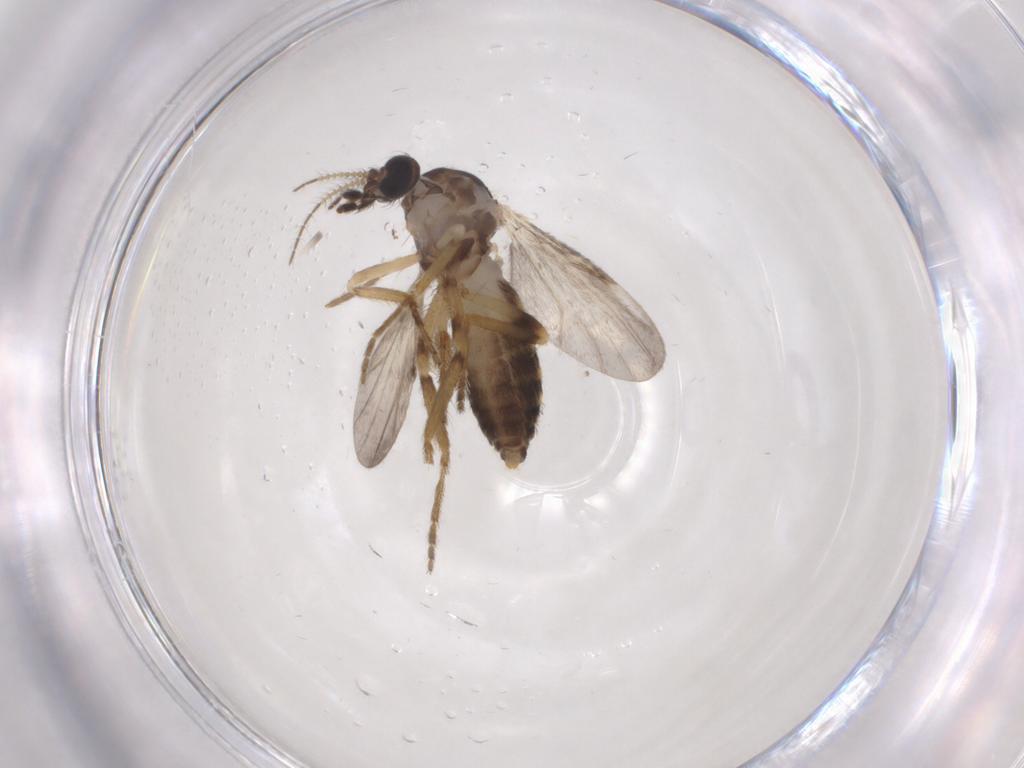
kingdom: Animalia
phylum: Arthropoda
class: Insecta
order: Diptera
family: Ceratopogonidae
